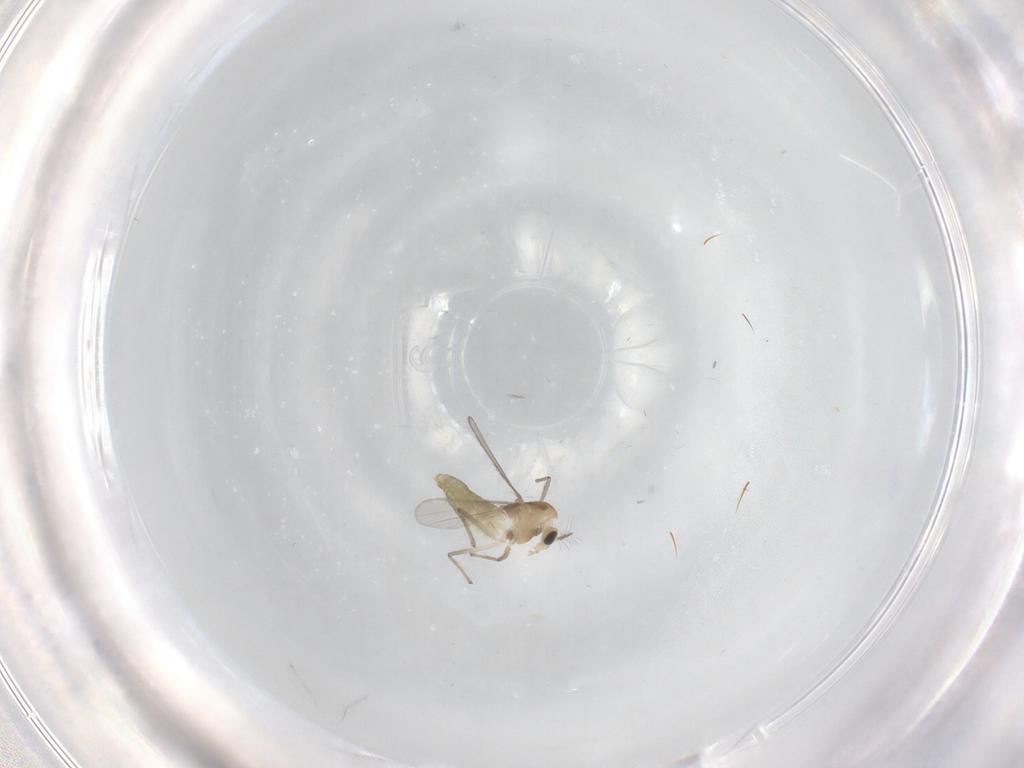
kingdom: Animalia
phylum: Arthropoda
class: Insecta
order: Diptera
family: Chironomidae
